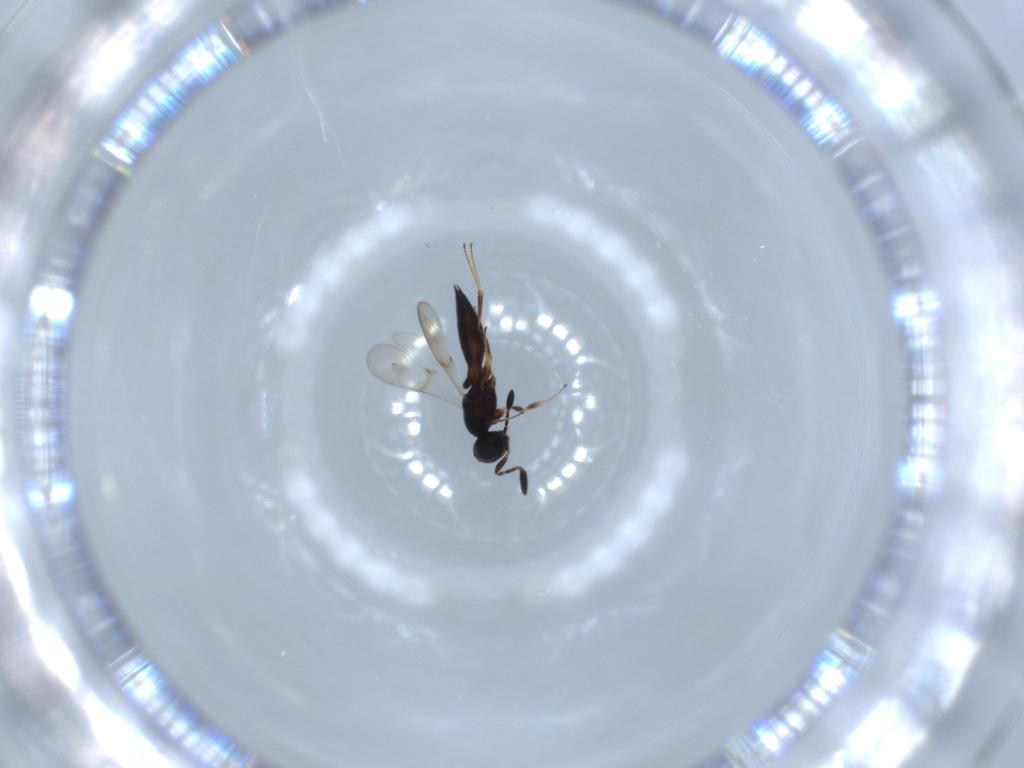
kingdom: Animalia
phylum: Arthropoda
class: Insecta
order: Hymenoptera
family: Scelionidae
